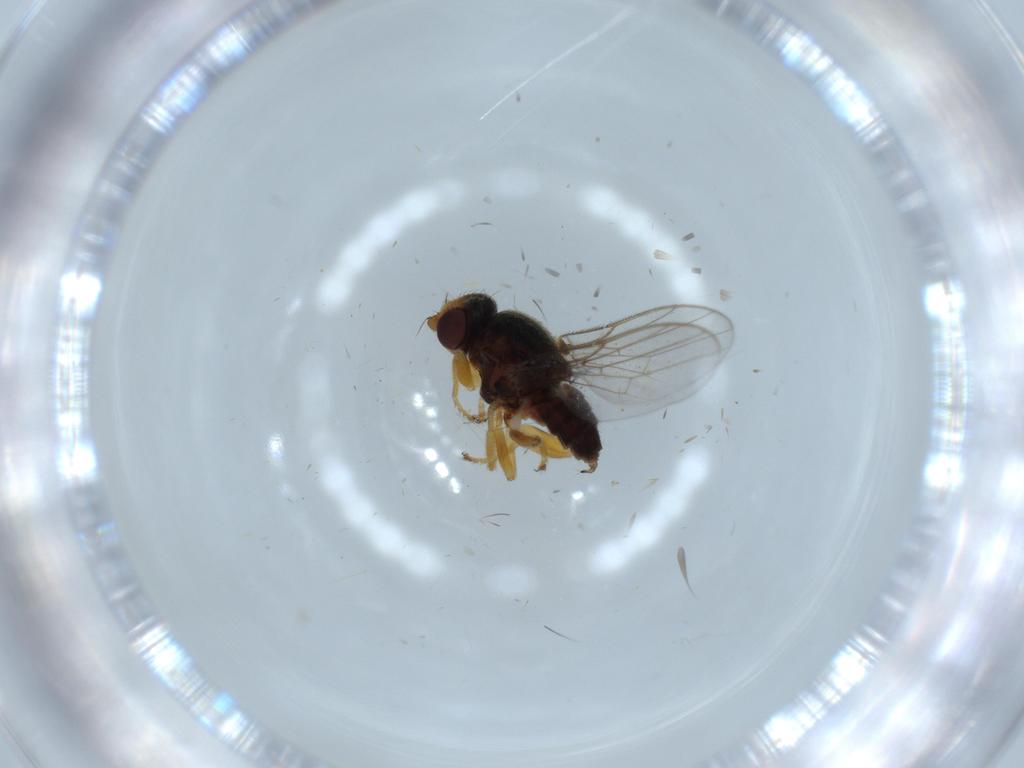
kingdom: Animalia
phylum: Arthropoda
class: Insecta
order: Diptera
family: Chloropidae
